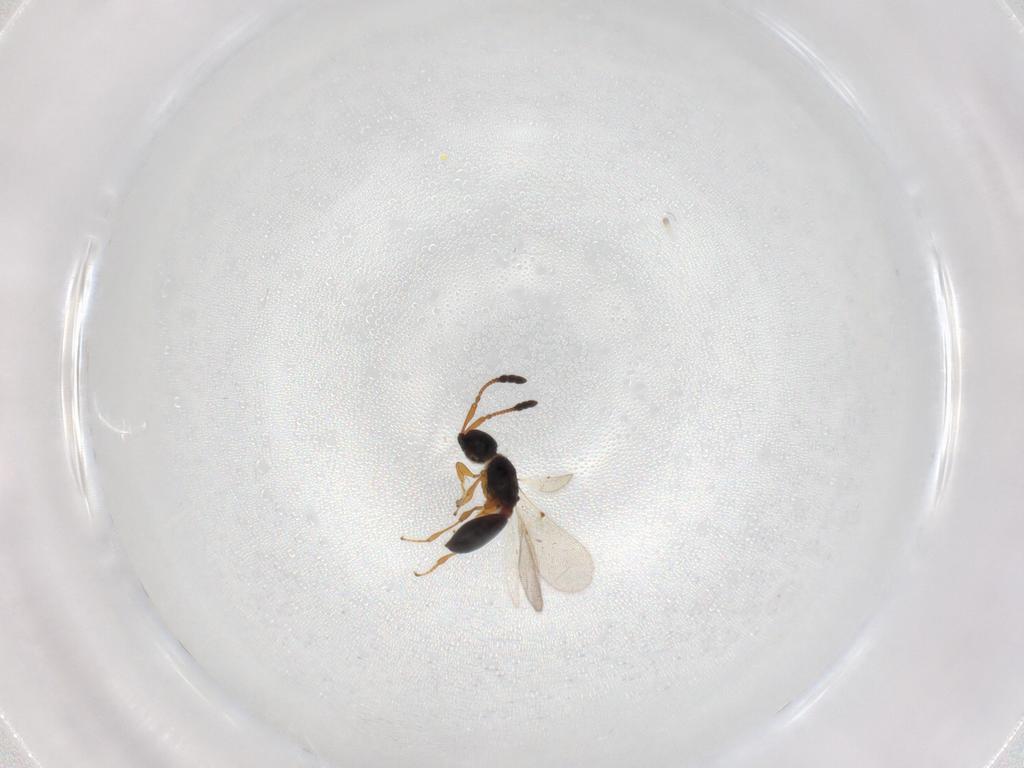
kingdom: Animalia
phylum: Arthropoda
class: Insecta
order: Hymenoptera
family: Diapriidae
